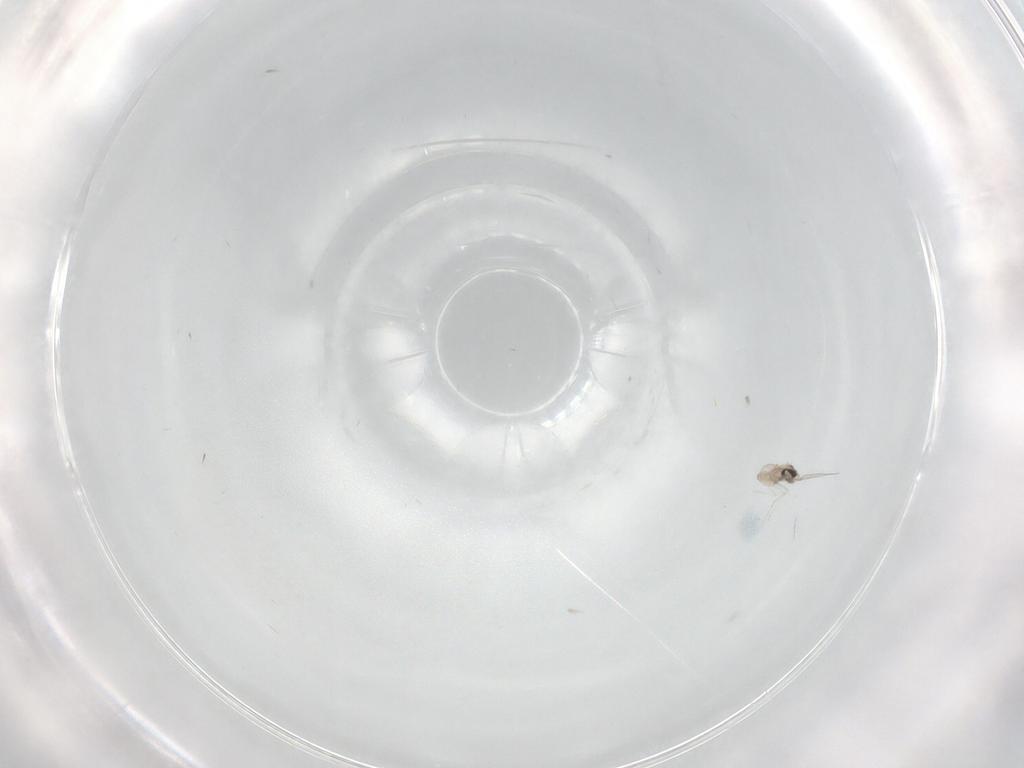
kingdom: Animalia
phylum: Arthropoda
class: Insecta
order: Diptera
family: Cecidomyiidae
